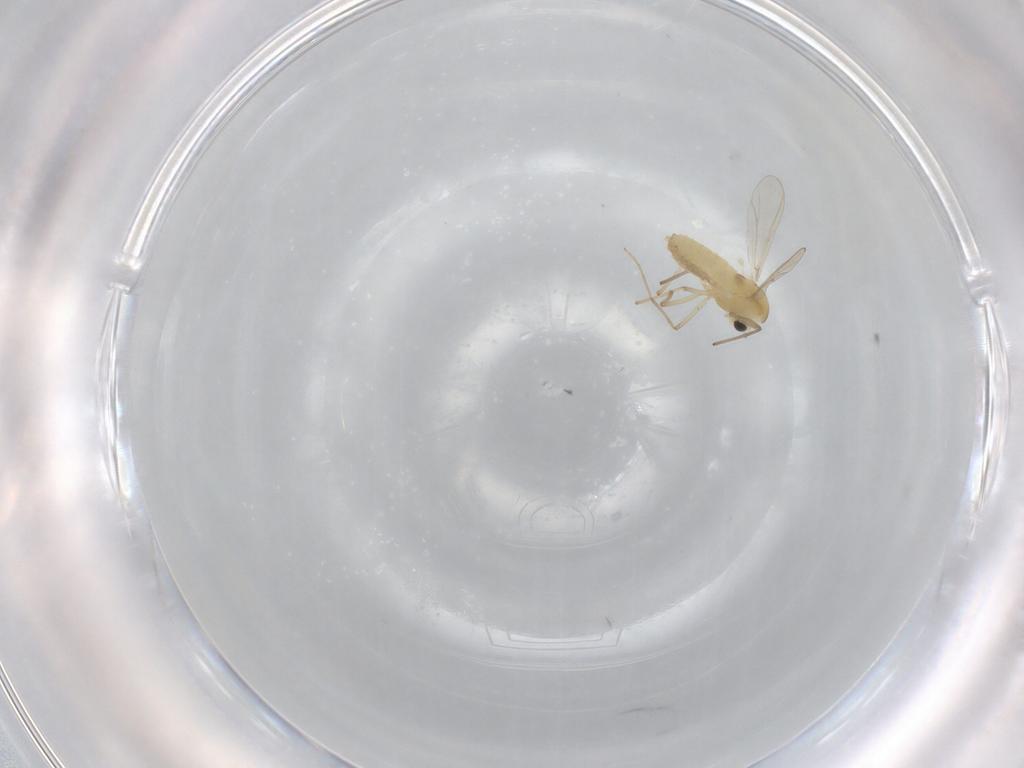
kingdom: Animalia
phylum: Arthropoda
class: Insecta
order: Diptera
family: Chironomidae
